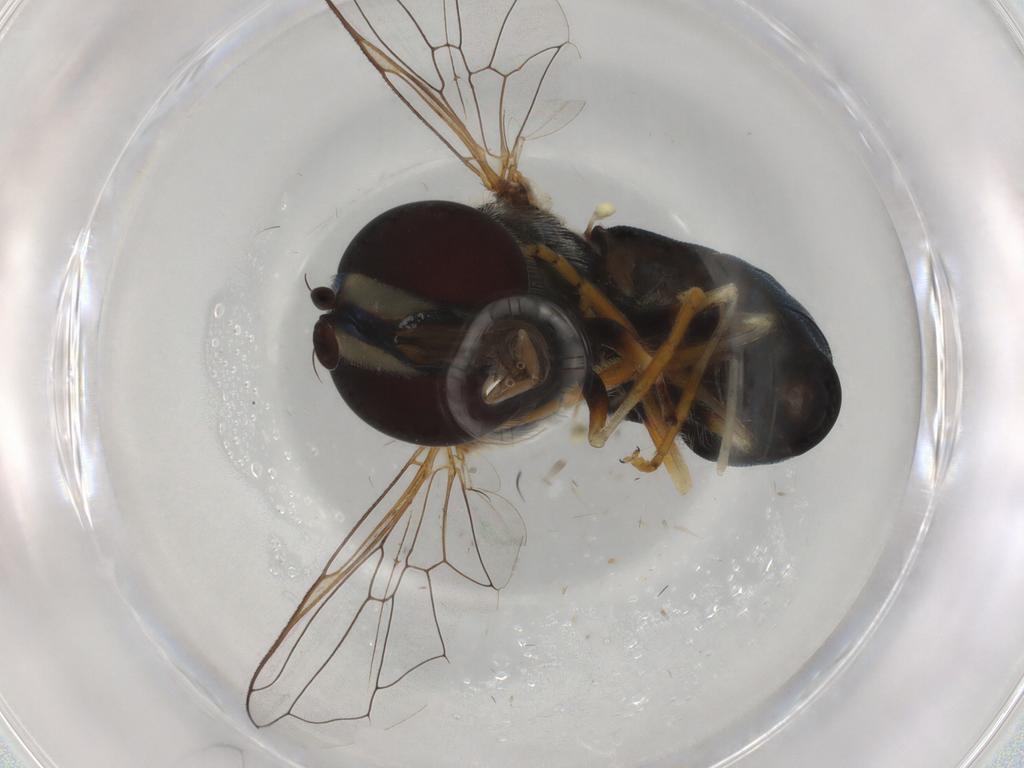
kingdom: Animalia
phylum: Arthropoda
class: Insecta
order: Diptera
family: Syrphidae
